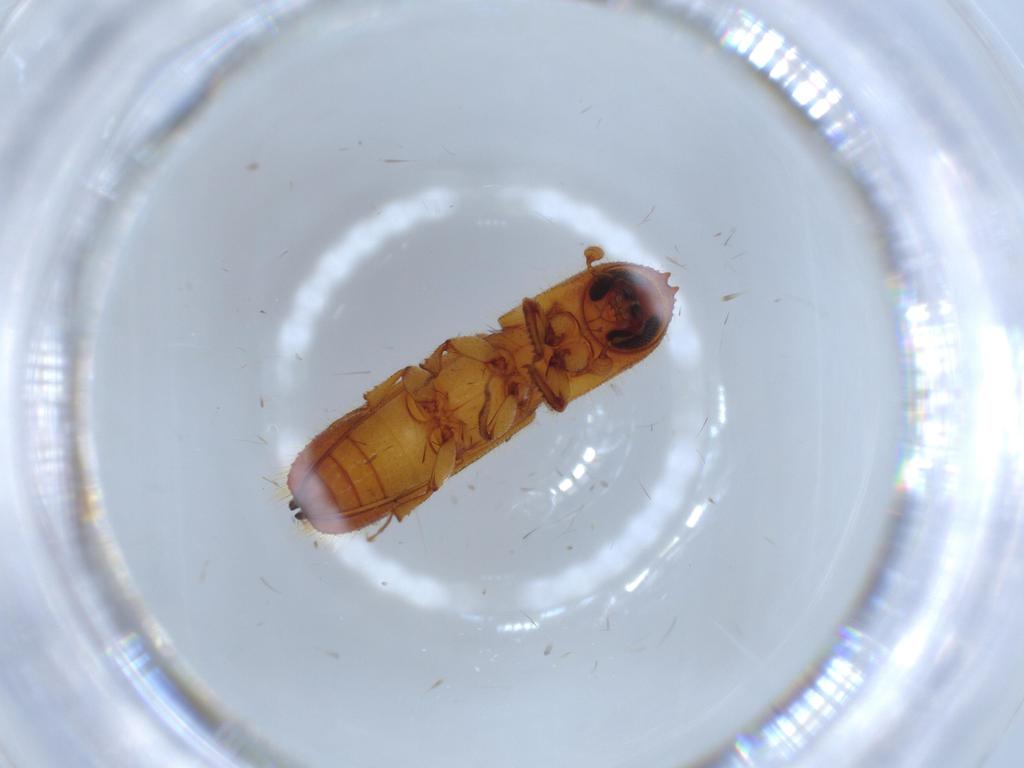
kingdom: Animalia
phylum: Arthropoda
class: Insecta
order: Coleoptera
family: Curculionidae
